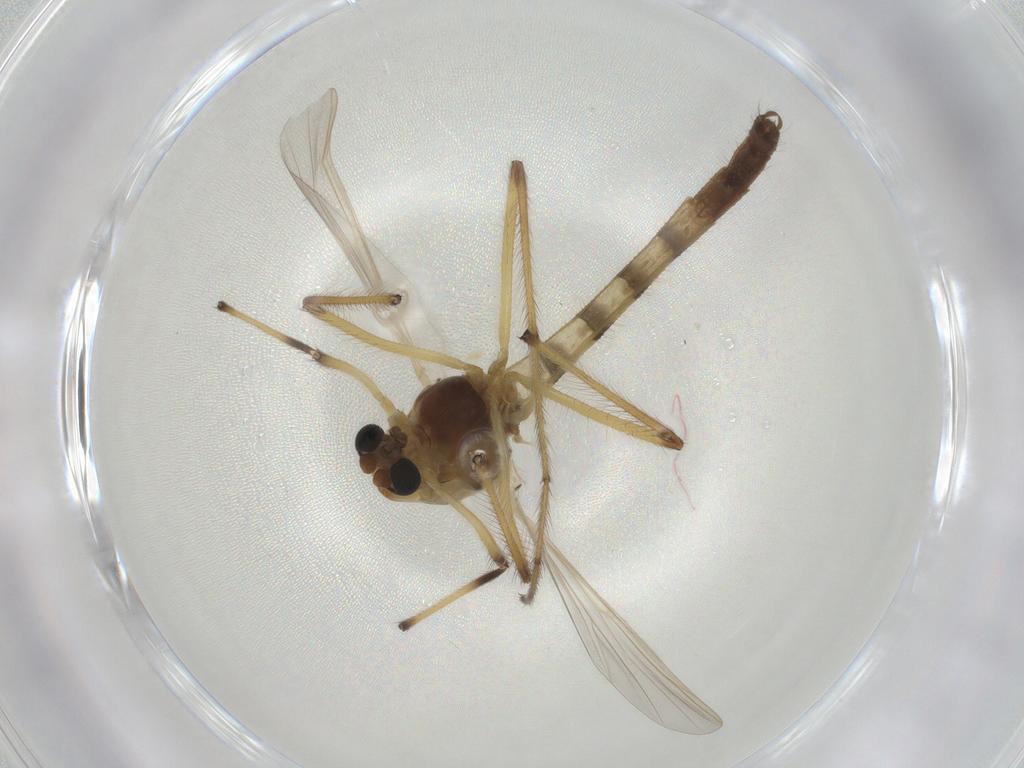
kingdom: Animalia
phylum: Arthropoda
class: Insecta
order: Diptera
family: Chironomidae
